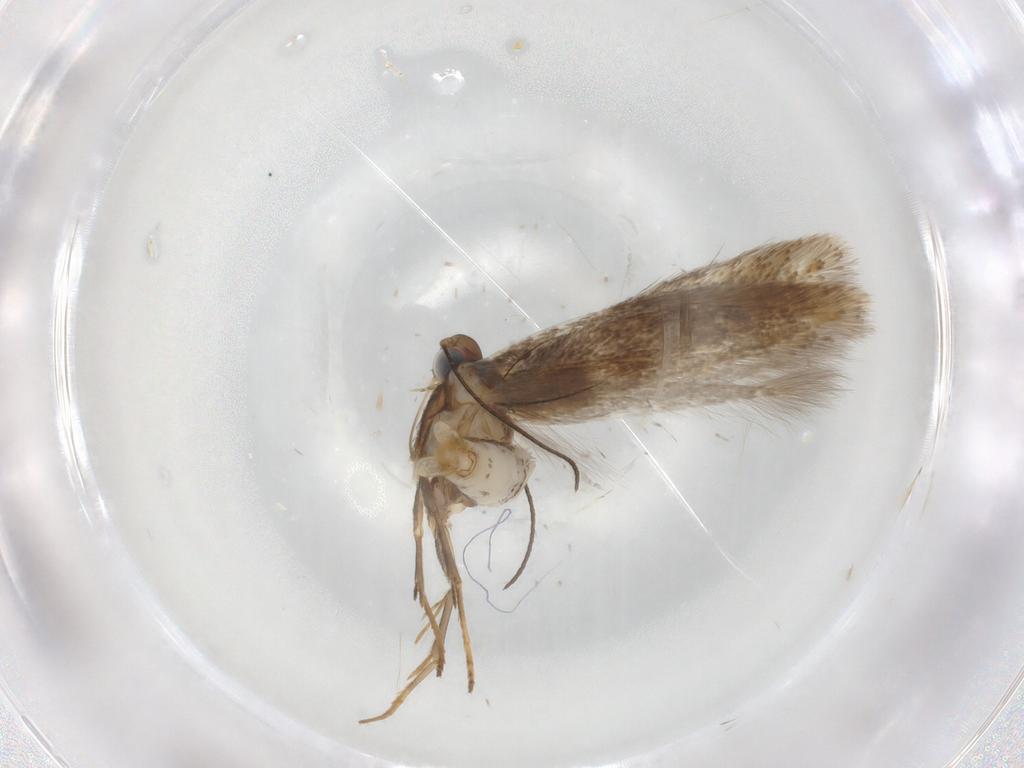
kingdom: Animalia
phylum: Arthropoda
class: Insecta
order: Lepidoptera
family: Tischeriidae
